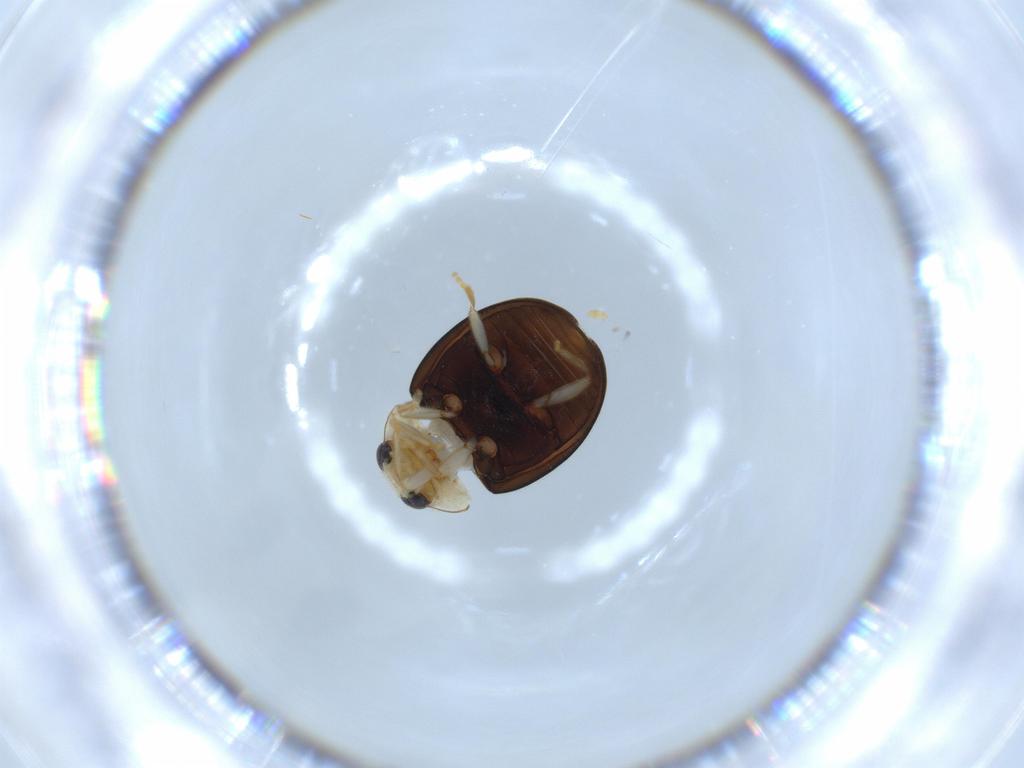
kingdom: Animalia
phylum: Arthropoda
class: Insecta
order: Coleoptera
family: Coccinellidae
